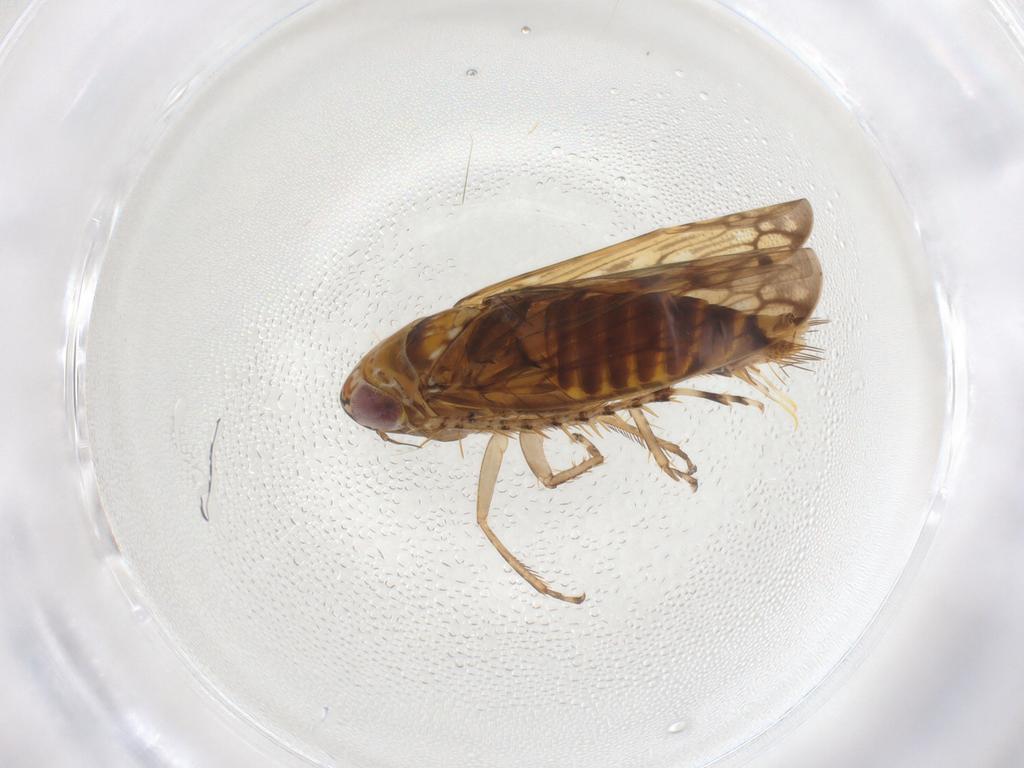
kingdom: Animalia
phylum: Arthropoda
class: Insecta
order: Hemiptera
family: Cicadellidae
